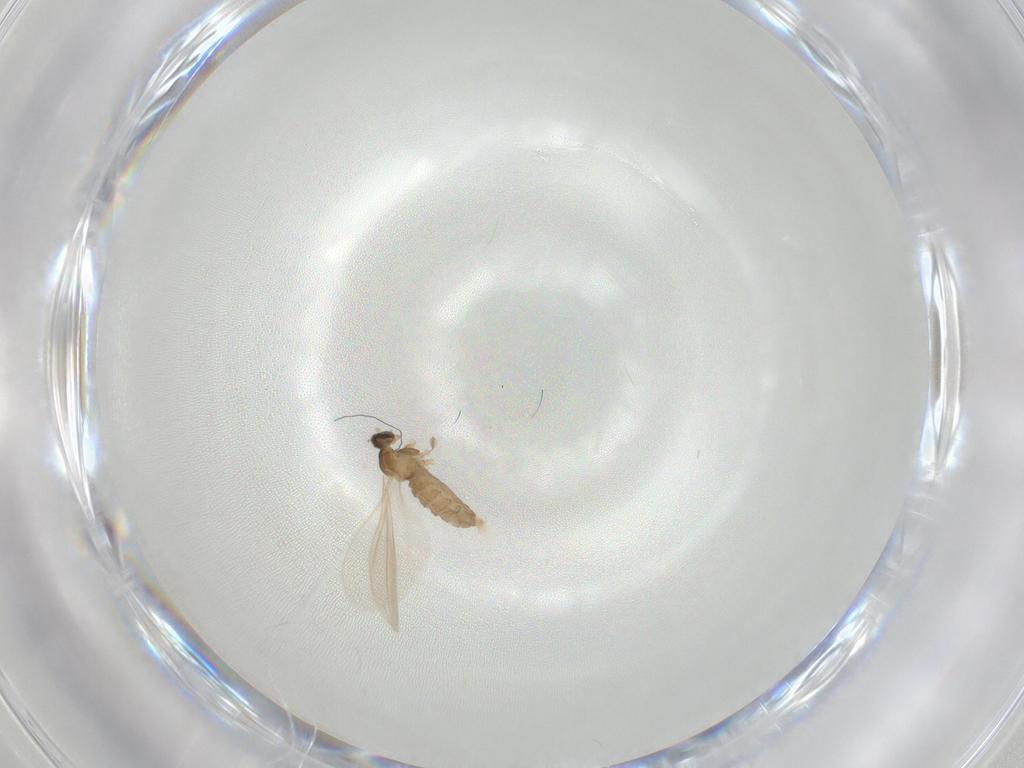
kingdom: Animalia
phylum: Arthropoda
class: Insecta
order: Diptera
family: Cecidomyiidae
